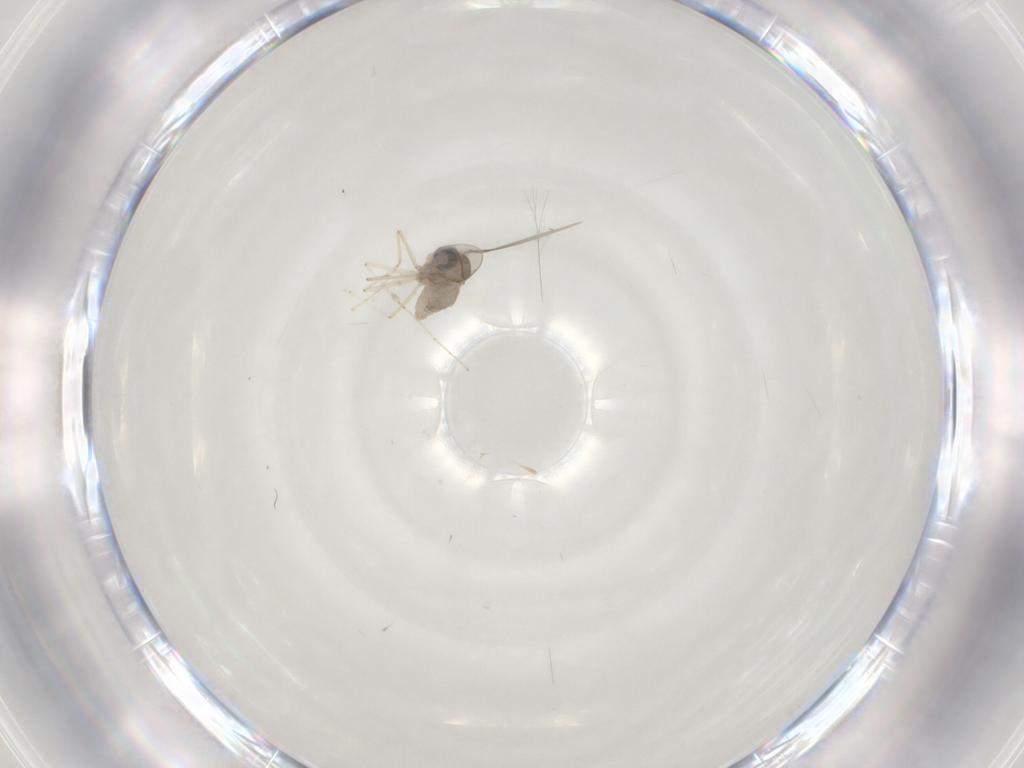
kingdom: Animalia
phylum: Arthropoda
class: Insecta
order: Diptera
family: Cecidomyiidae
